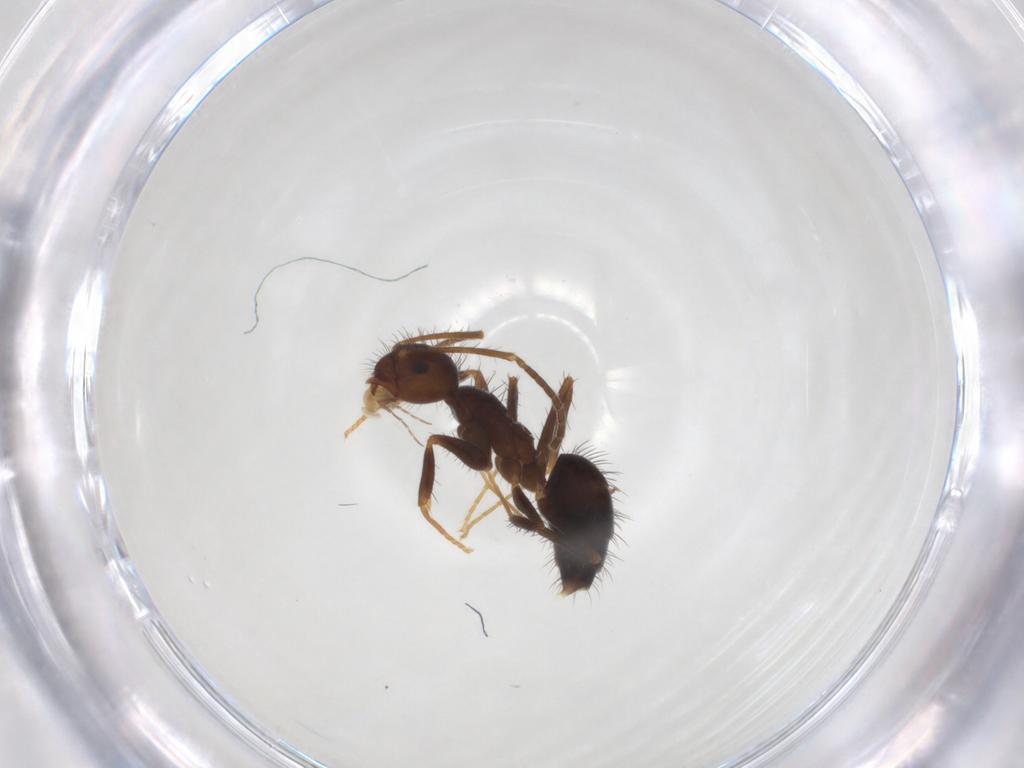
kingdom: Animalia
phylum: Arthropoda
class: Insecta
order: Hymenoptera
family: Formicidae
